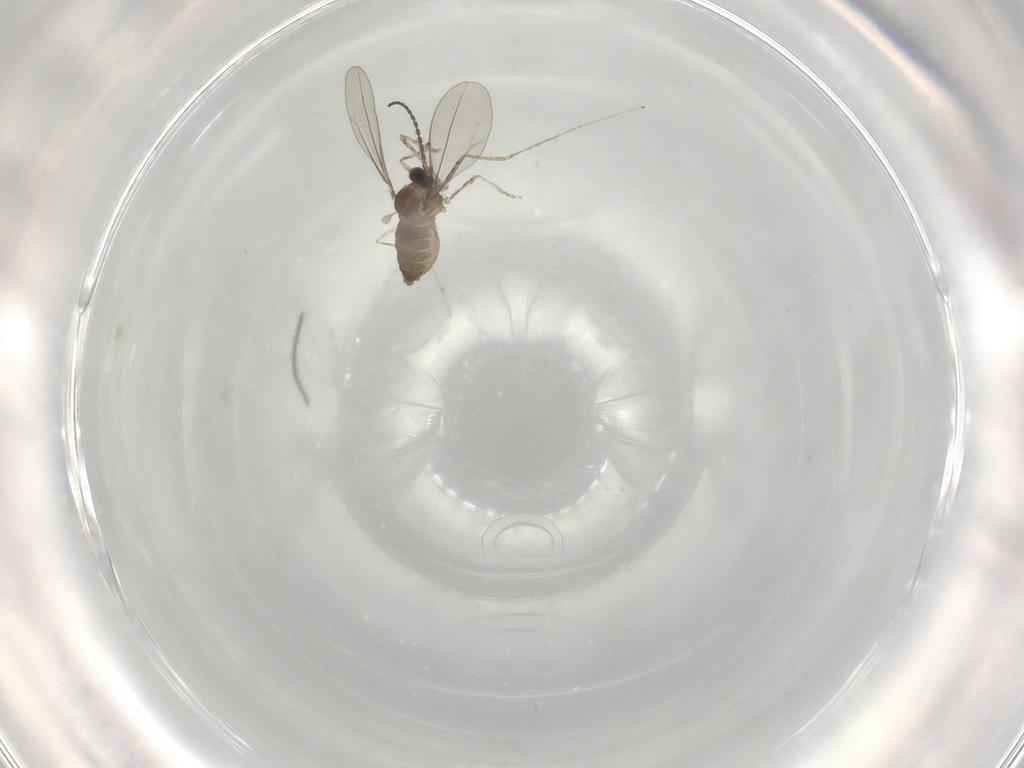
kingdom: Animalia
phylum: Arthropoda
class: Insecta
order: Diptera
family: Cecidomyiidae
